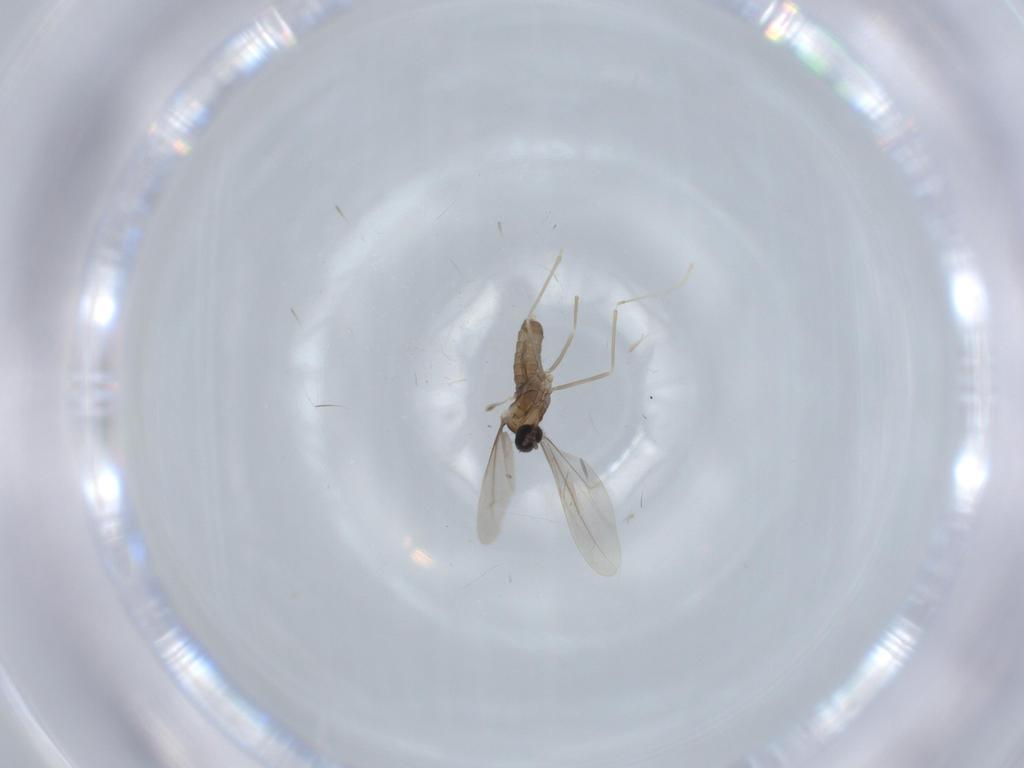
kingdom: Animalia
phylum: Arthropoda
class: Insecta
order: Diptera
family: Cecidomyiidae
